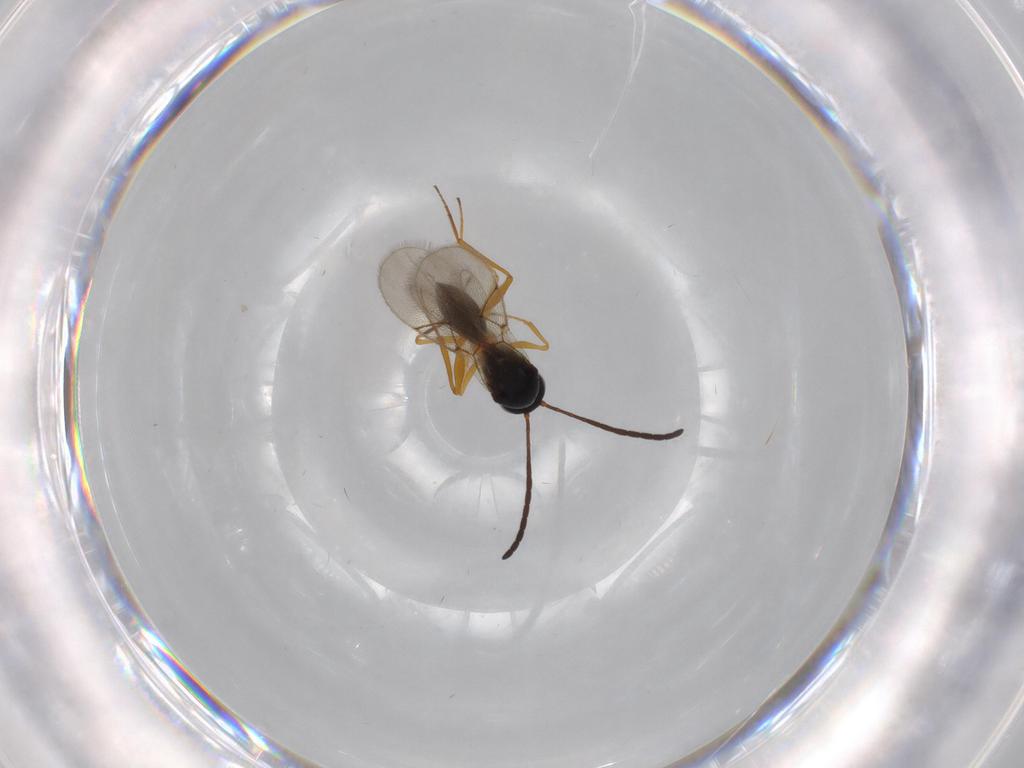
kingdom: Animalia
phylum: Arthropoda
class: Insecta
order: Hymenoptera
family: Figitidae
